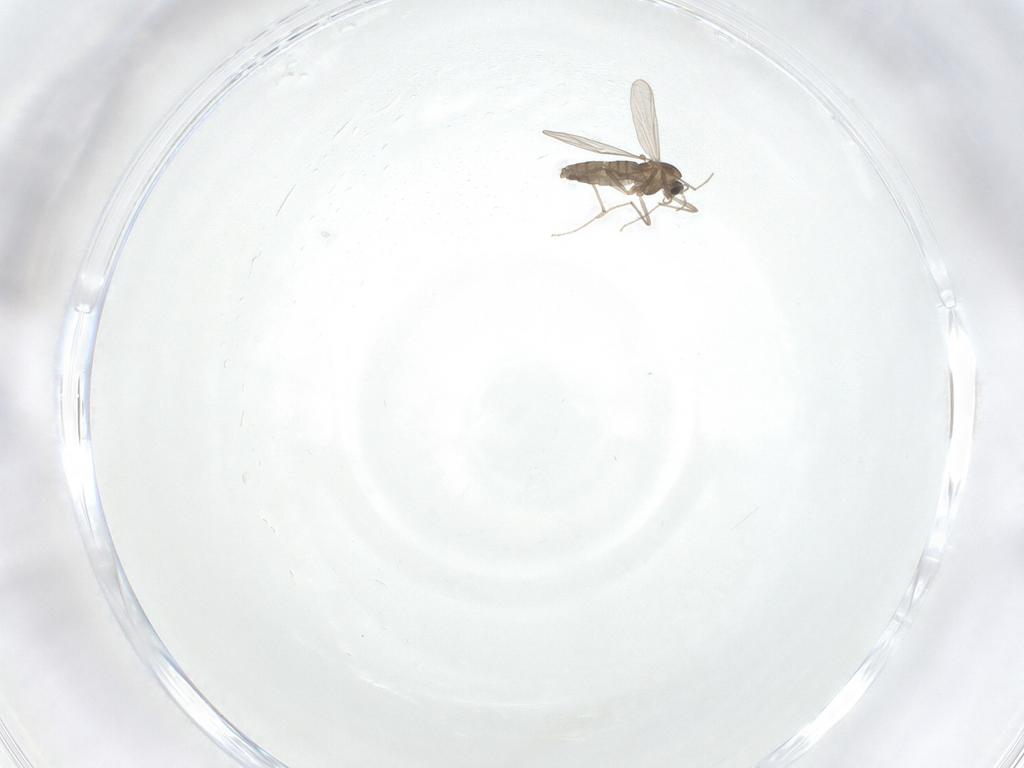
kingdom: Animalia
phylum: Arthropoda
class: Insecta
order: Diptera
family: Chironomidae
